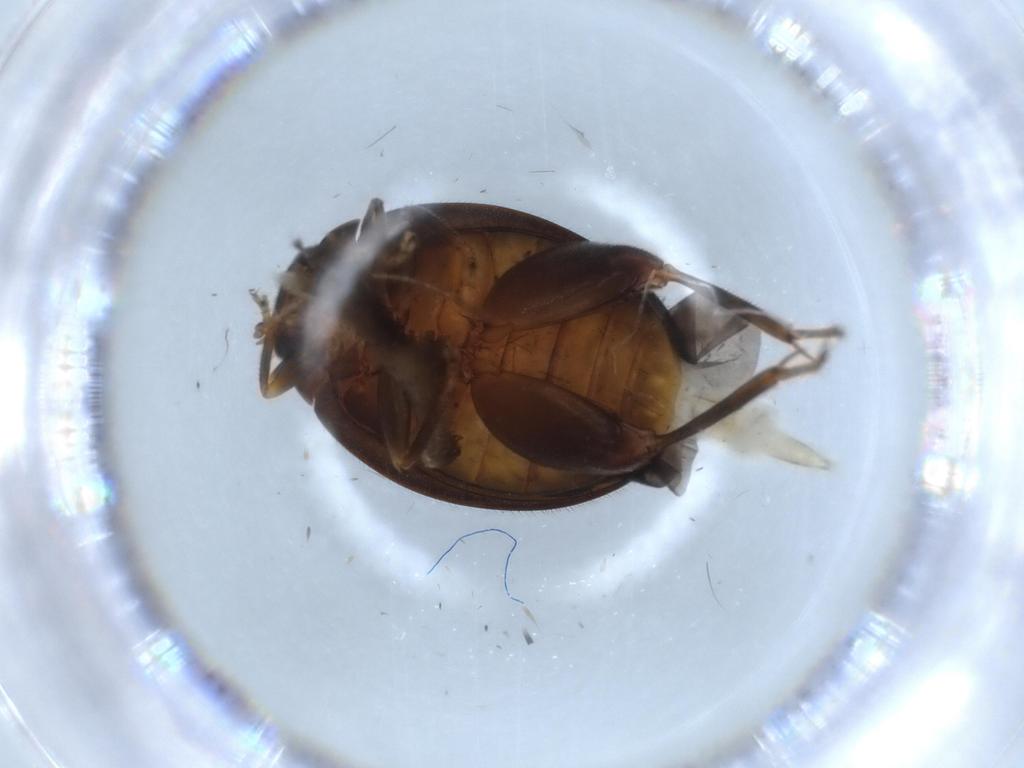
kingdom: Animalia
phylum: Arthropoda
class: Insecta
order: Coleoptera
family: Scirtidae
